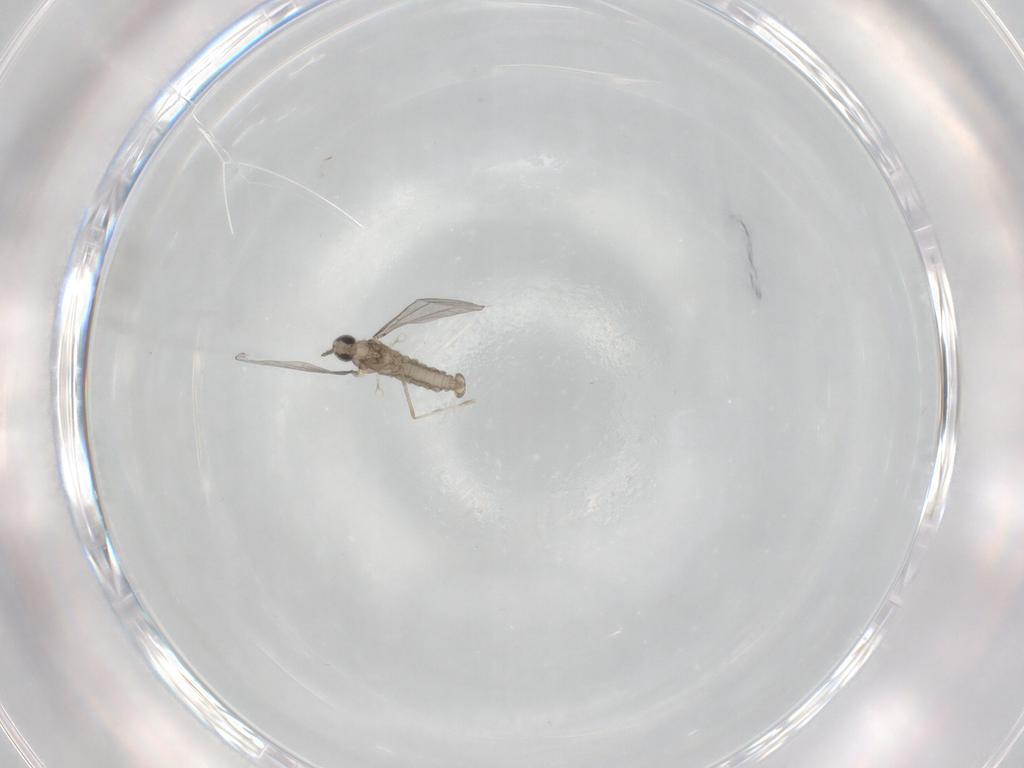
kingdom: Animalia
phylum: Arthropoda
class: Insecta
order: Diptera
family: Cecidomyiidae
